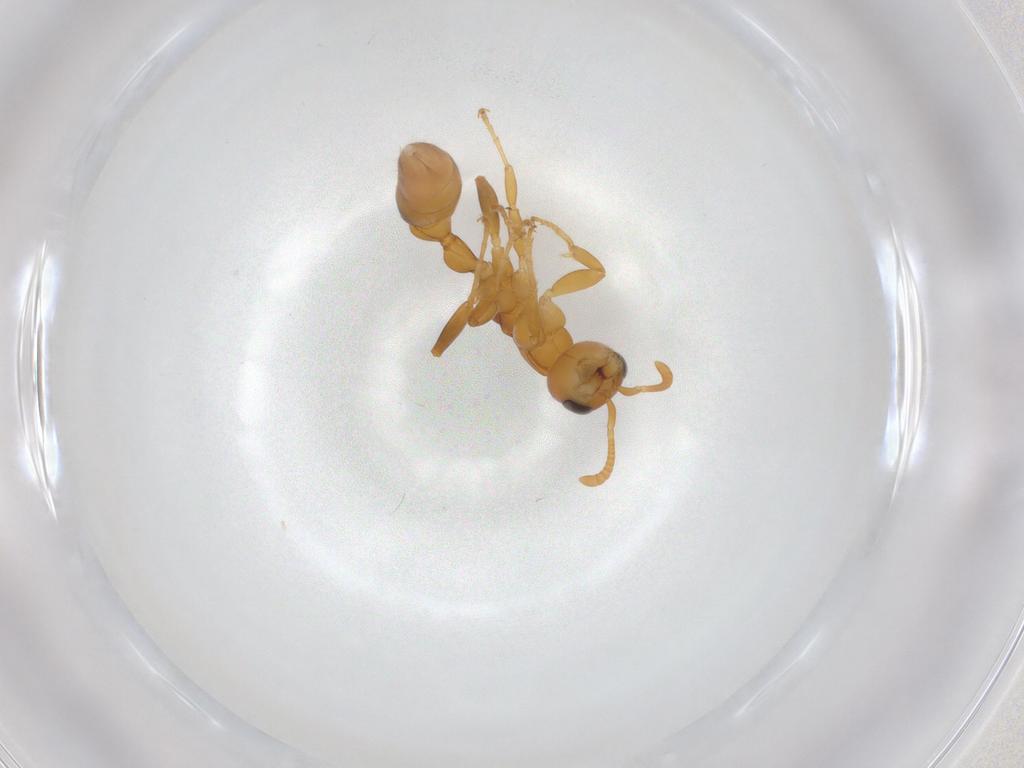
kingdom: Animalia
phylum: Arthropoda
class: Insecta
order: Hymenoptera
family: Formicidae
